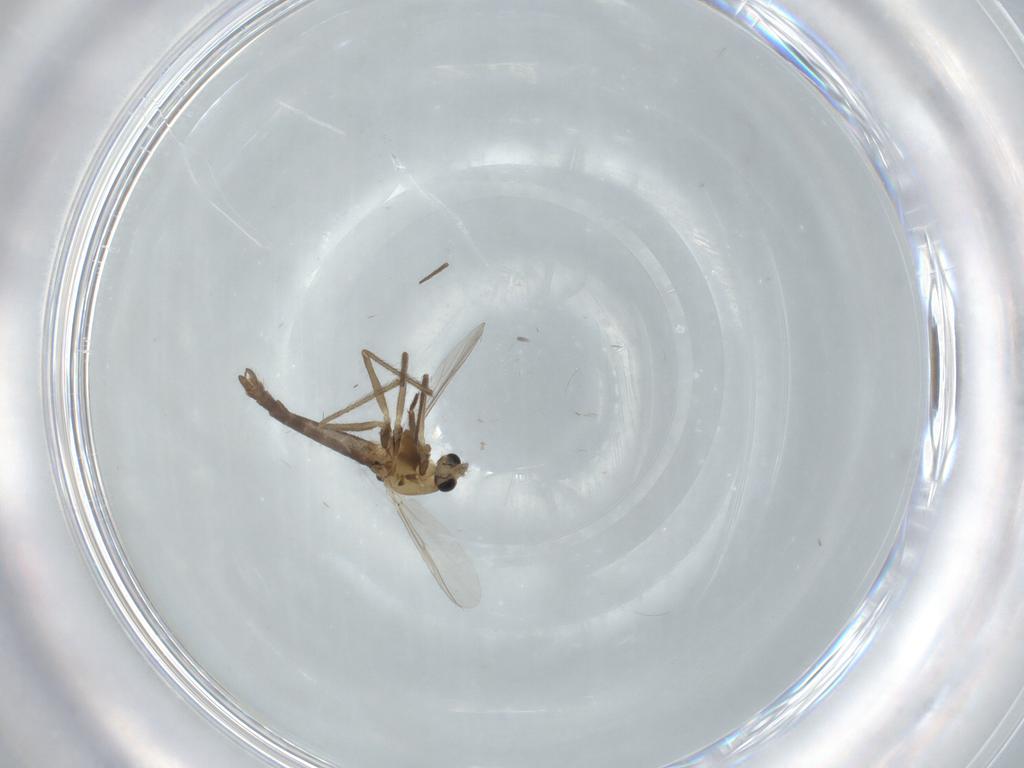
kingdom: Animalia
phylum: Arthropoda
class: Insecta
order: Diptera
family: Chironomidae
